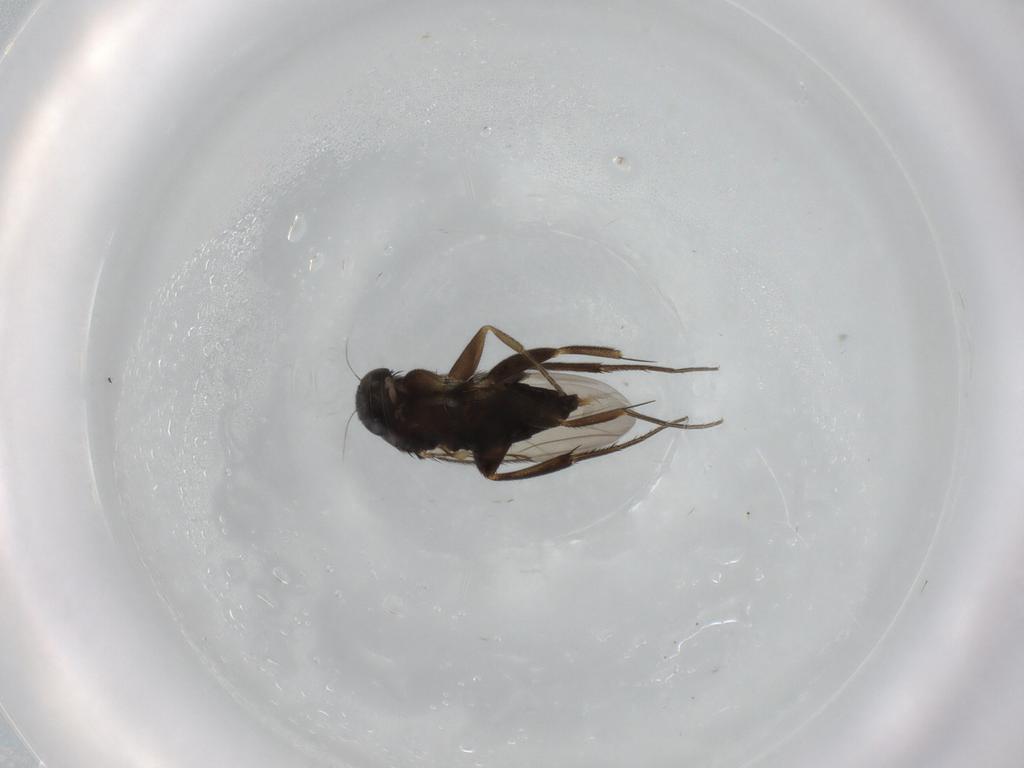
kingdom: Animalia
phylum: Arthropoda
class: Insecta
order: Diptera
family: Phoridae
